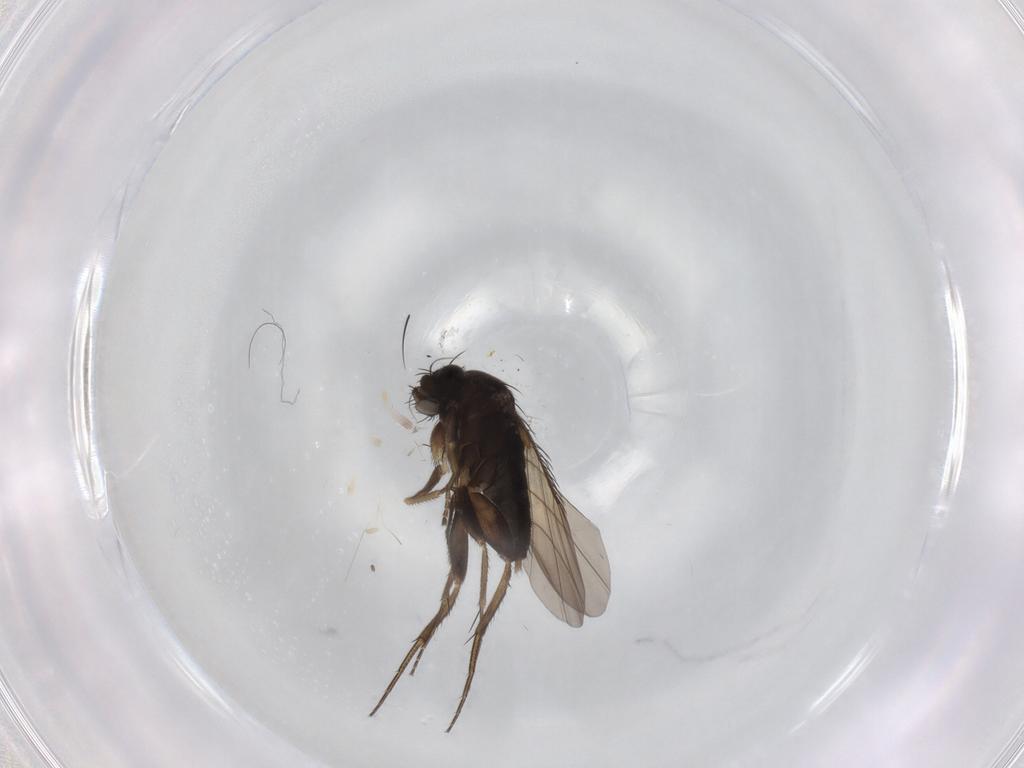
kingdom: Animalia
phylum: Arthropoda
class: Insecta
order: Diptera
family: Phoridae
